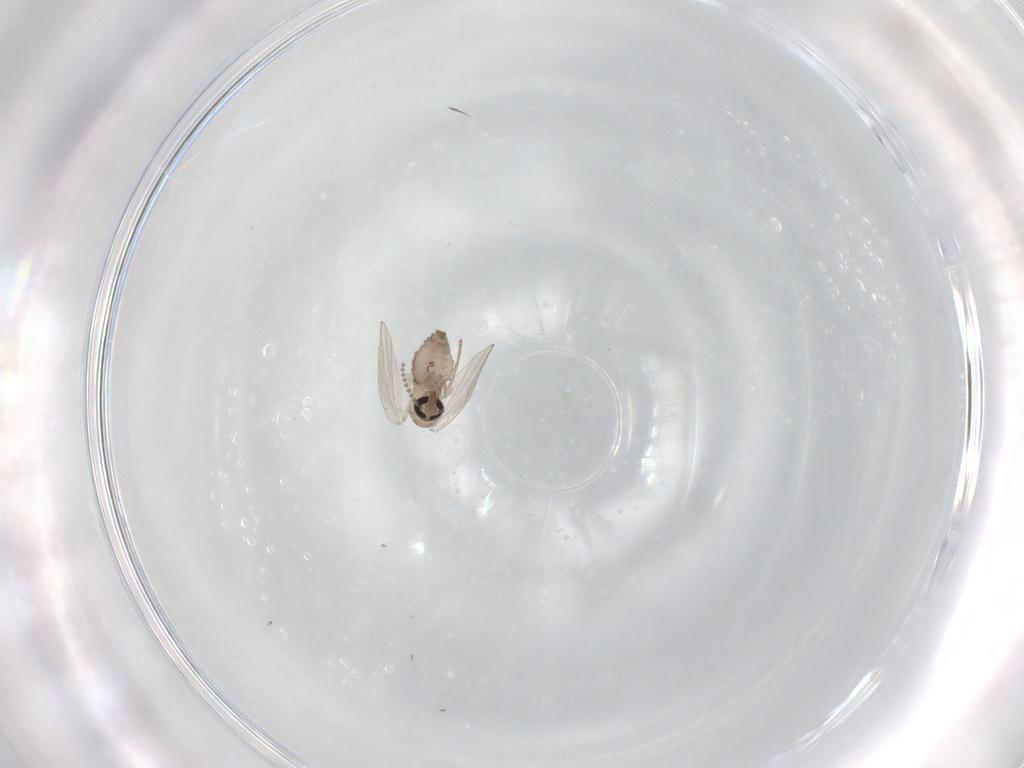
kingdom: Animalia
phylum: Arthropoda
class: Insecta
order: Diptera
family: Psychodidae
